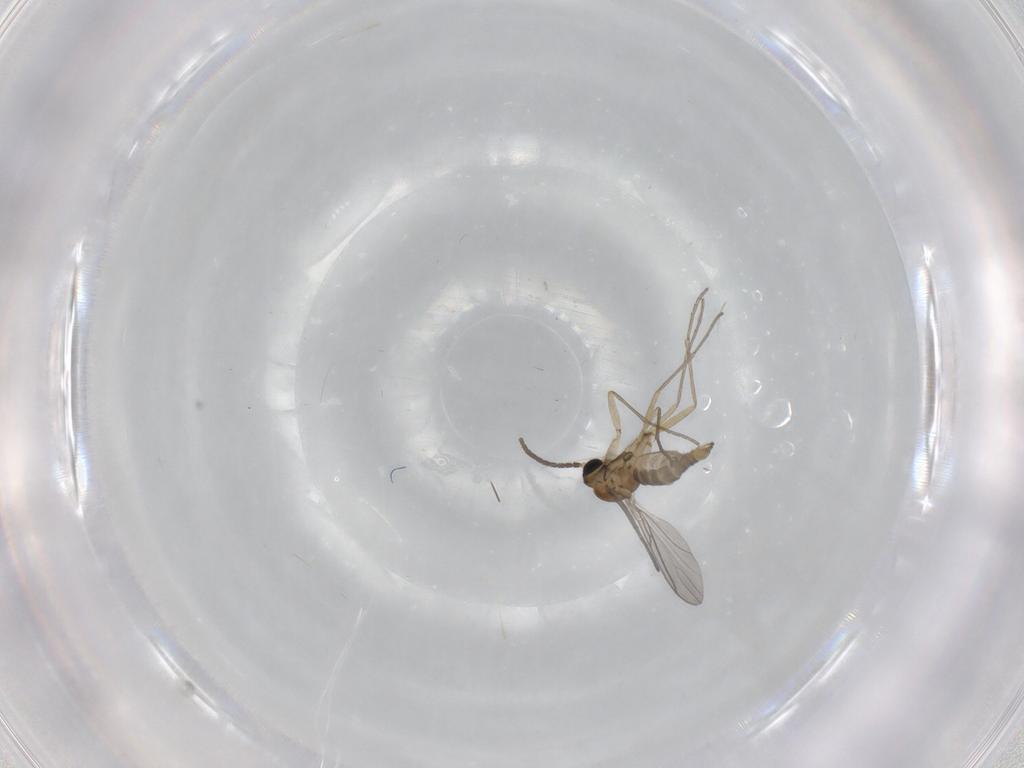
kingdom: Animalia
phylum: Arthropoda
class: Insecta
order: Diptera
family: Sciaridae
